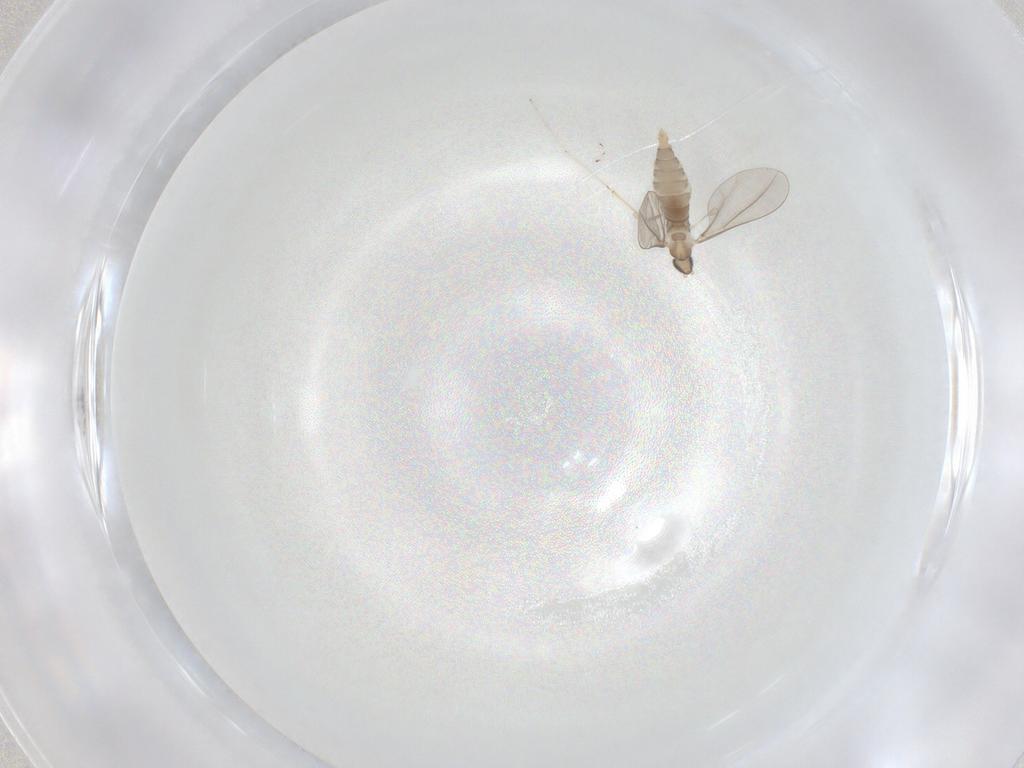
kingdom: Animalia
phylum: Arthropoda
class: Insecta
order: Diptera
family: Cecidomyiidae
